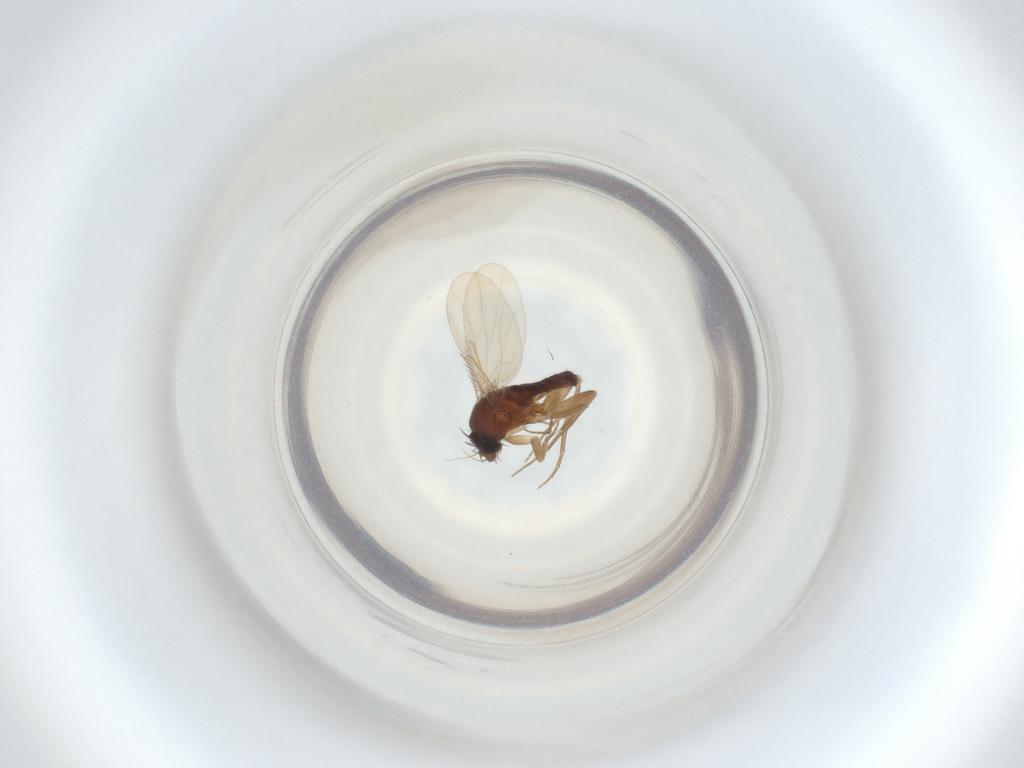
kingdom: Animalia
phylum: Arthropoda
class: Insecta
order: Diptera
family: Phoridae
